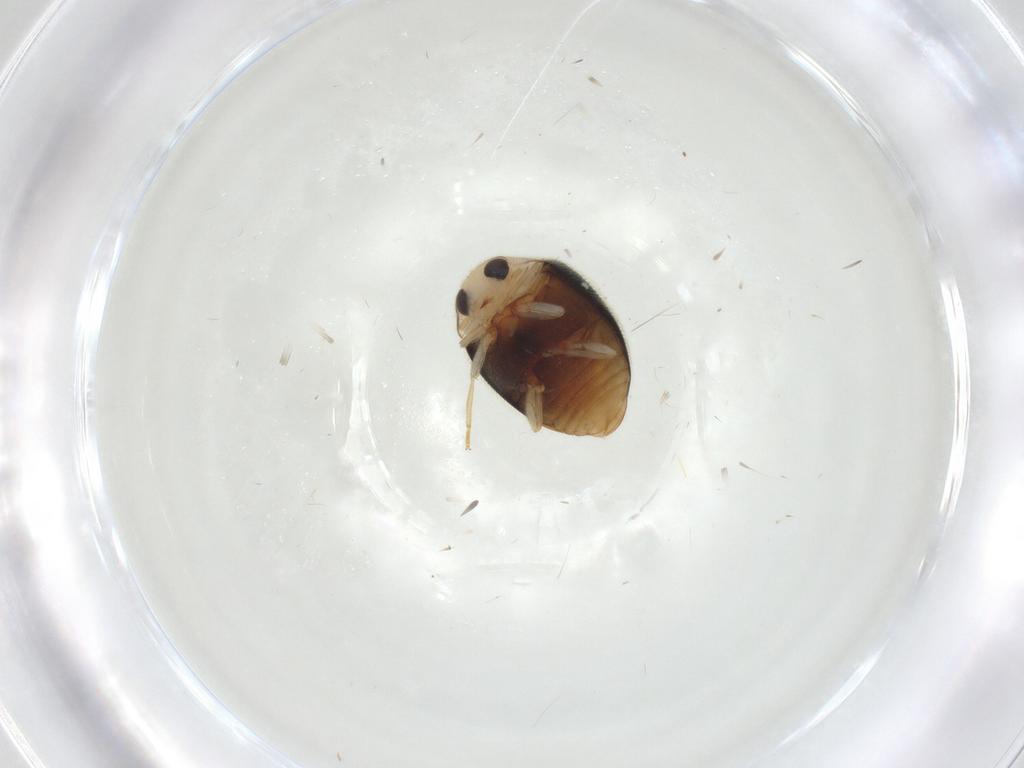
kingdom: Animalia
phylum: Arthropoda
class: Insecta
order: Coleoptera
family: Coccinellidae
